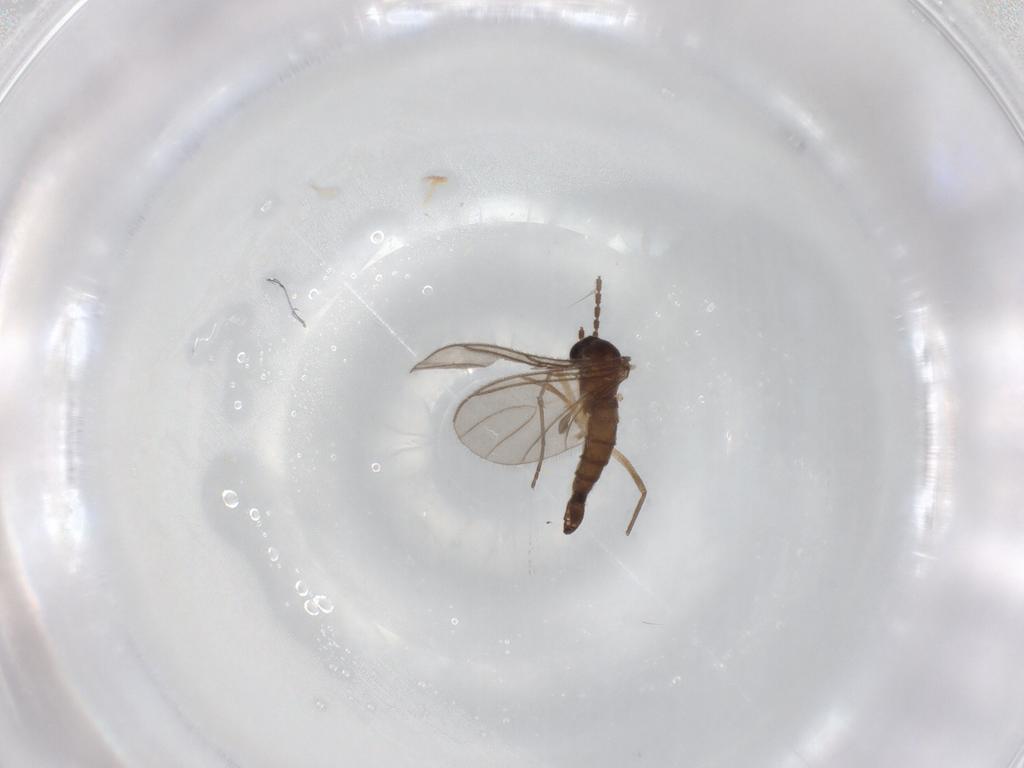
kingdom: Animalia
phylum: Arthropoda
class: Insecta
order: Diptera
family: Sciaridae
